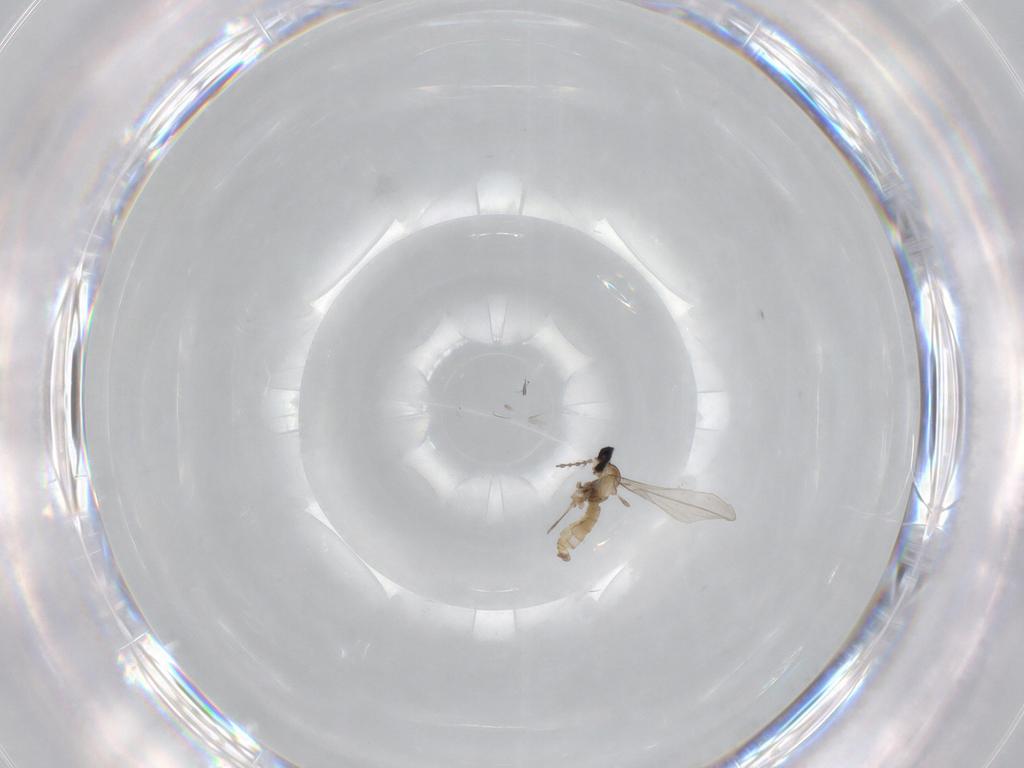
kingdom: Animalia
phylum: Arthropoda
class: Insecta
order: Diptera
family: Cecidomyiidae
